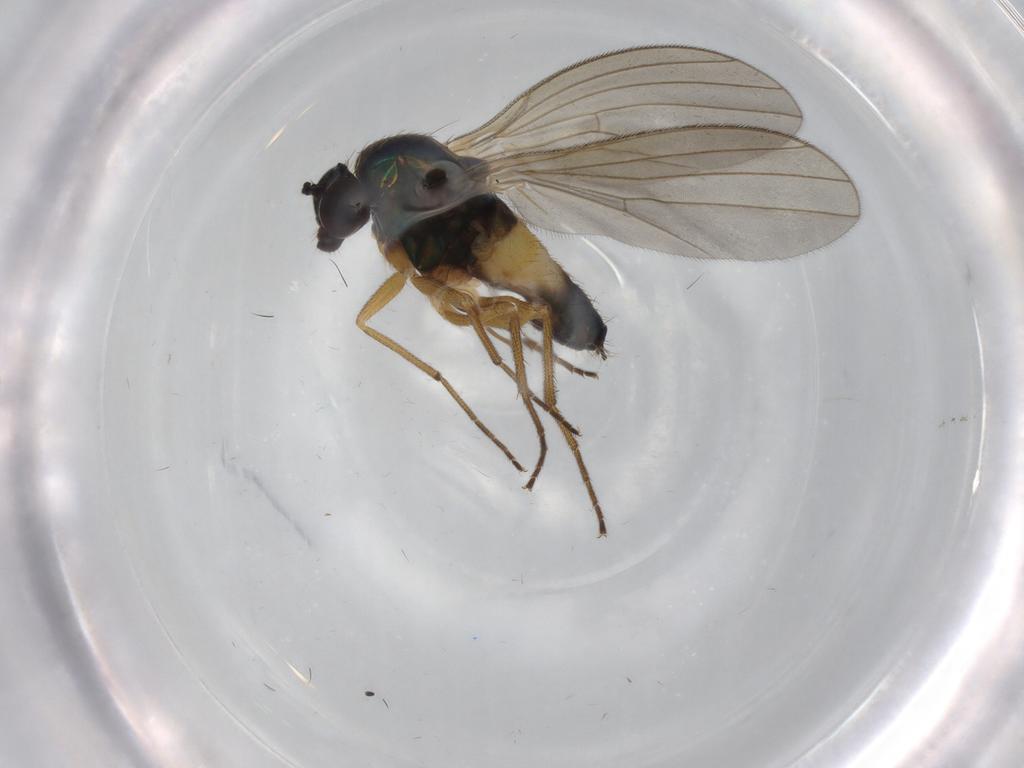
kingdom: Animalia
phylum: Arthropoda
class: Insecta
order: Diptera
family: Dolichopodidae
